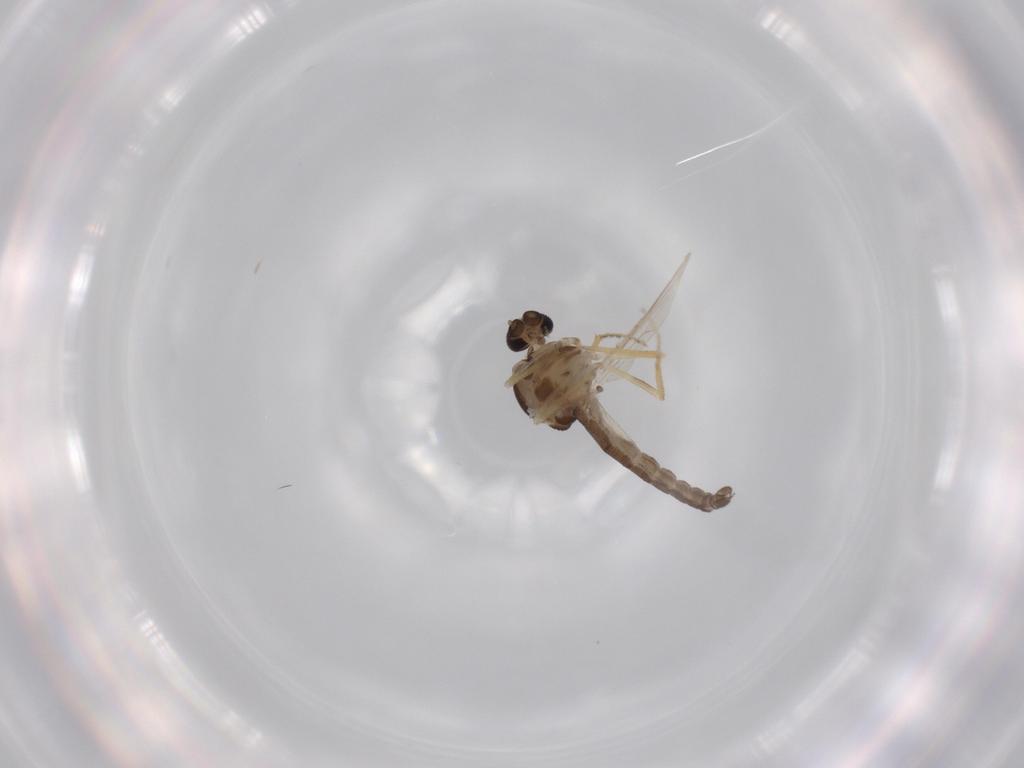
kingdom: Animalia
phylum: Arthropoda
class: Insecta
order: Diptera
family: Ceratopogonidae
